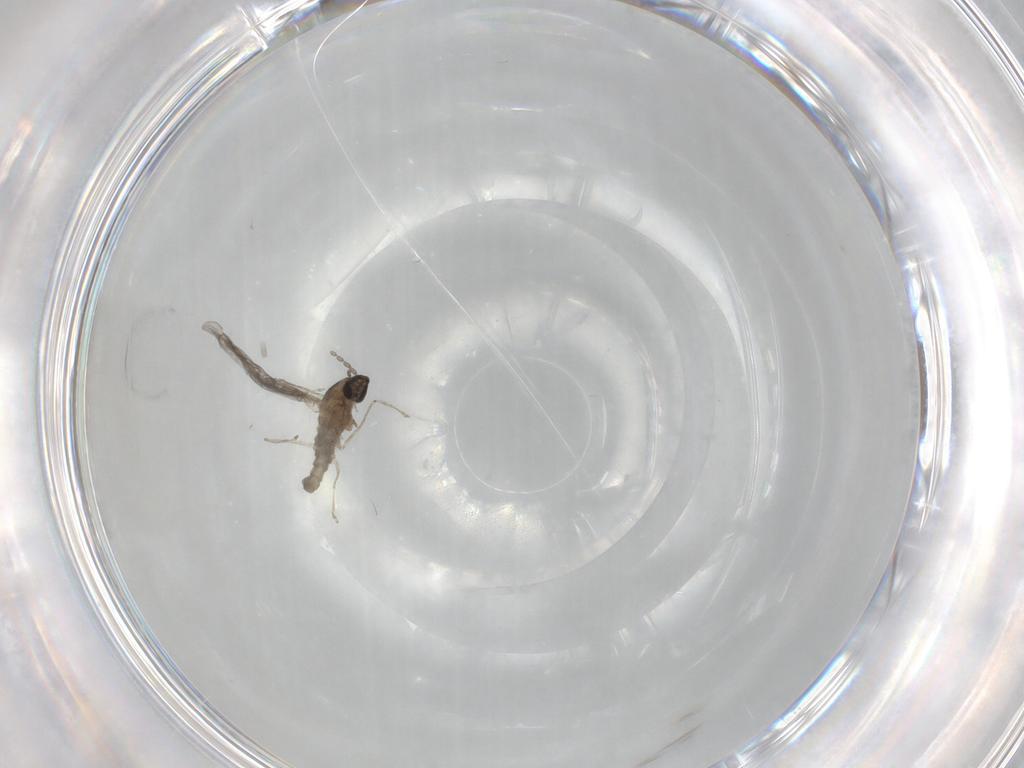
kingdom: Animalia
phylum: Arthropoda
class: Insecta
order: Diptera
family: Cecidomyiidae
